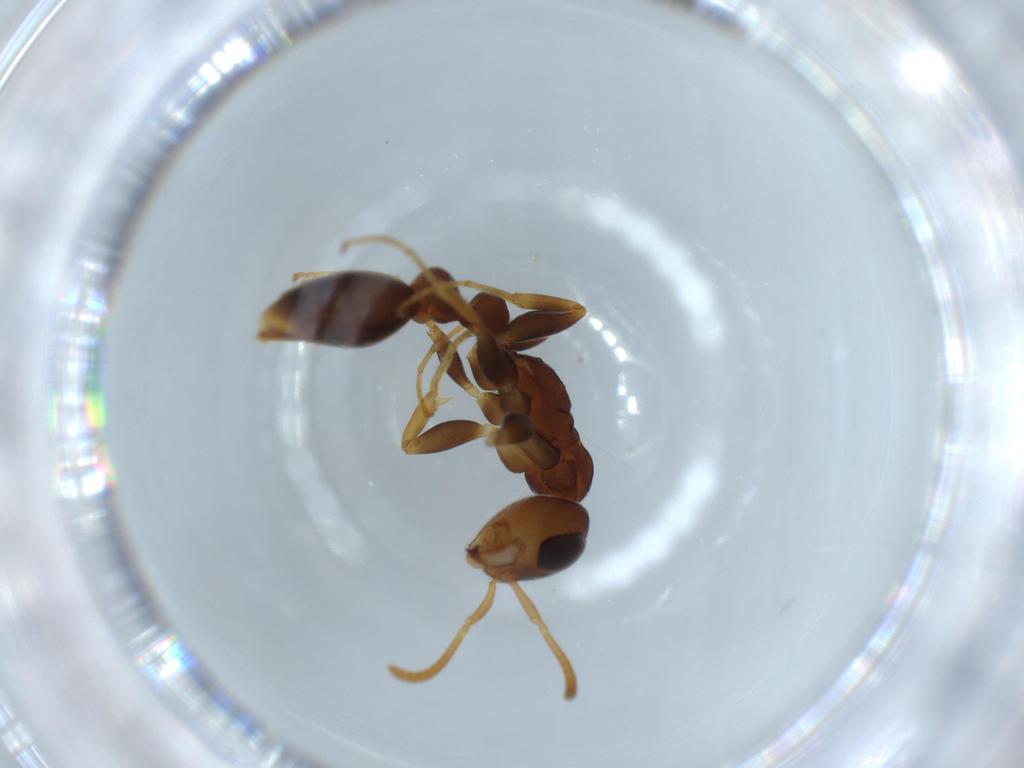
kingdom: Animalia
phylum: Arthropoda
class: Insecta
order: Hymenoptera
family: Formicidae
